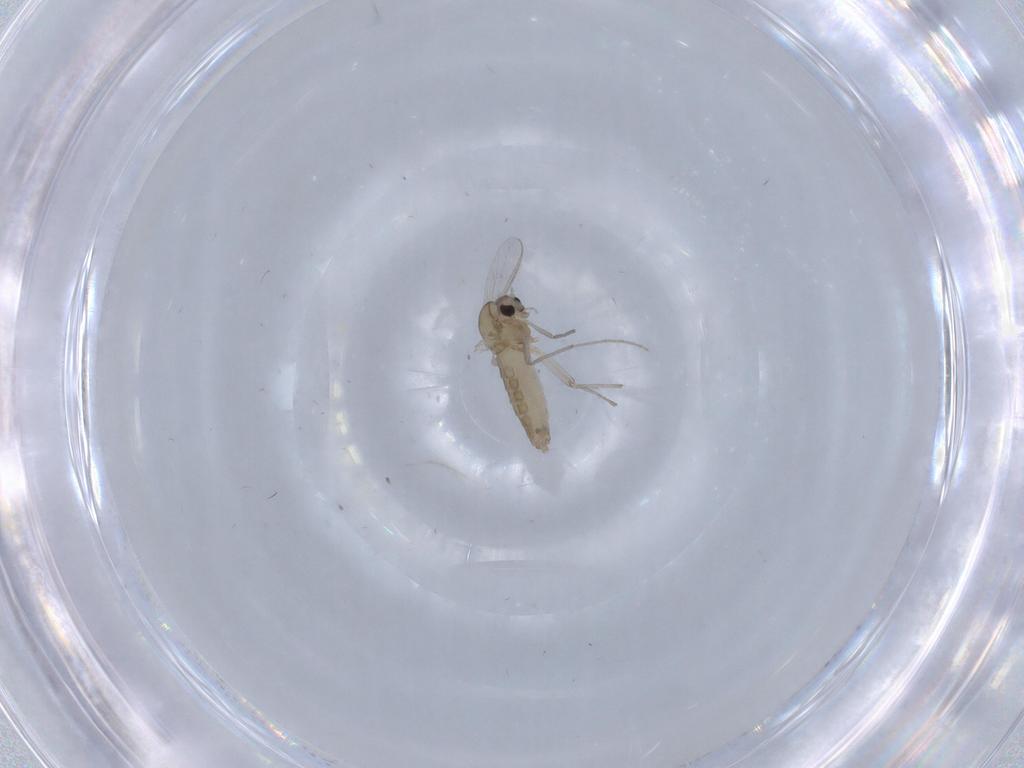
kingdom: Animalia
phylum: Arthropoda
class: Insecta
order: Diptera
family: Chironomidae
